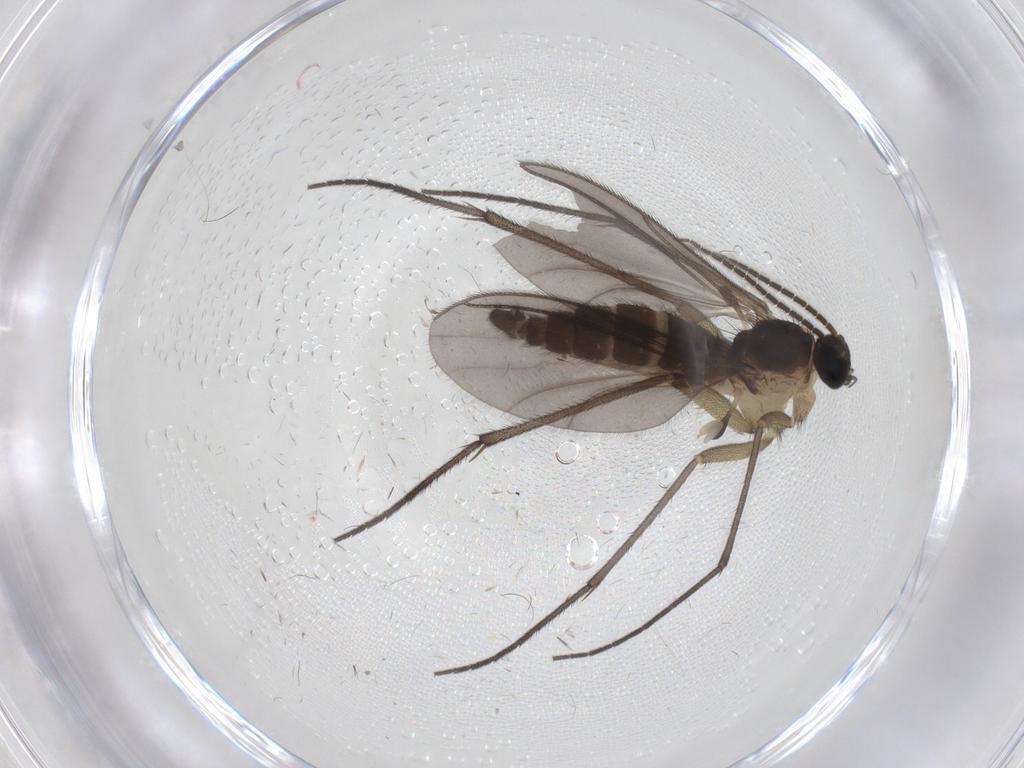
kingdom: Animalia
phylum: Arthropoda
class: Insecta
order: Diptera
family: Sciaridae
